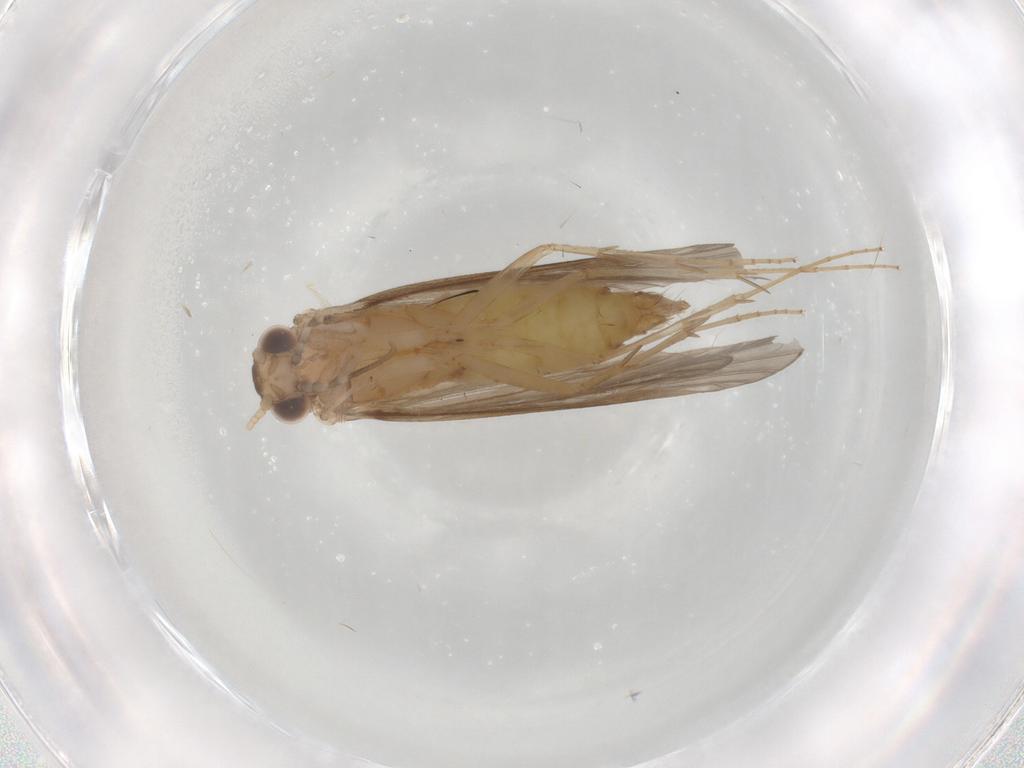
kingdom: Animalia
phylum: Arthropoda
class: Insecta
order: Trichoptera
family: Ecnomidae
